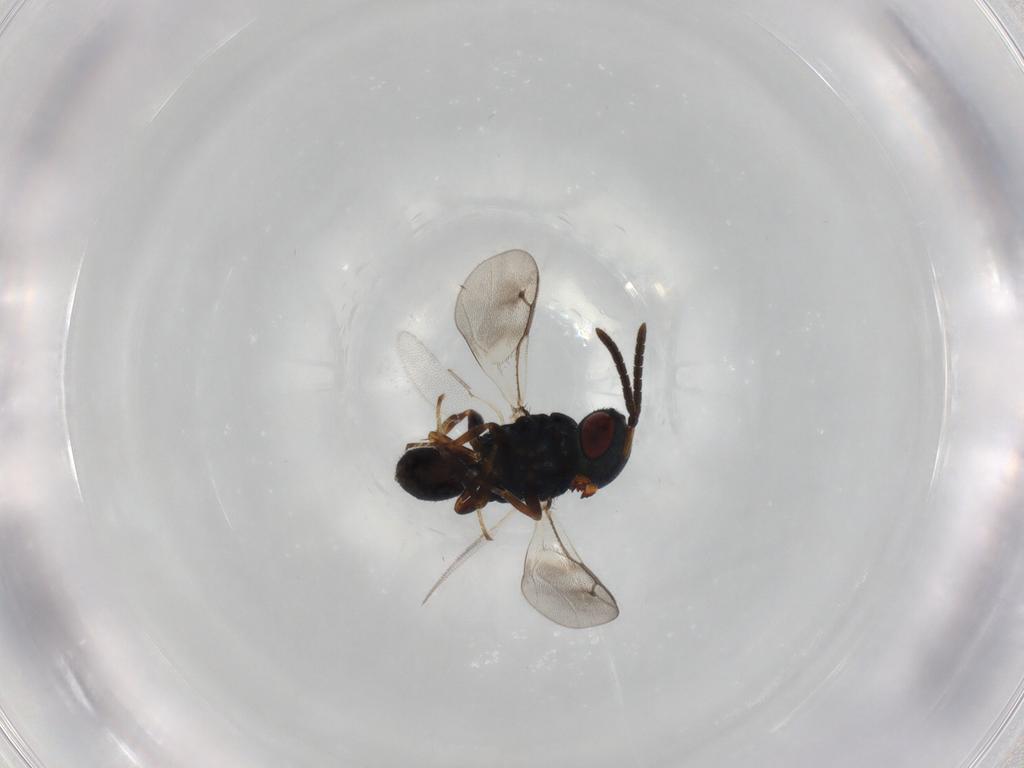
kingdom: Animalia
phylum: Arthropoda
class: Insecta
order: Hymenoptera
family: Pteromalidae
